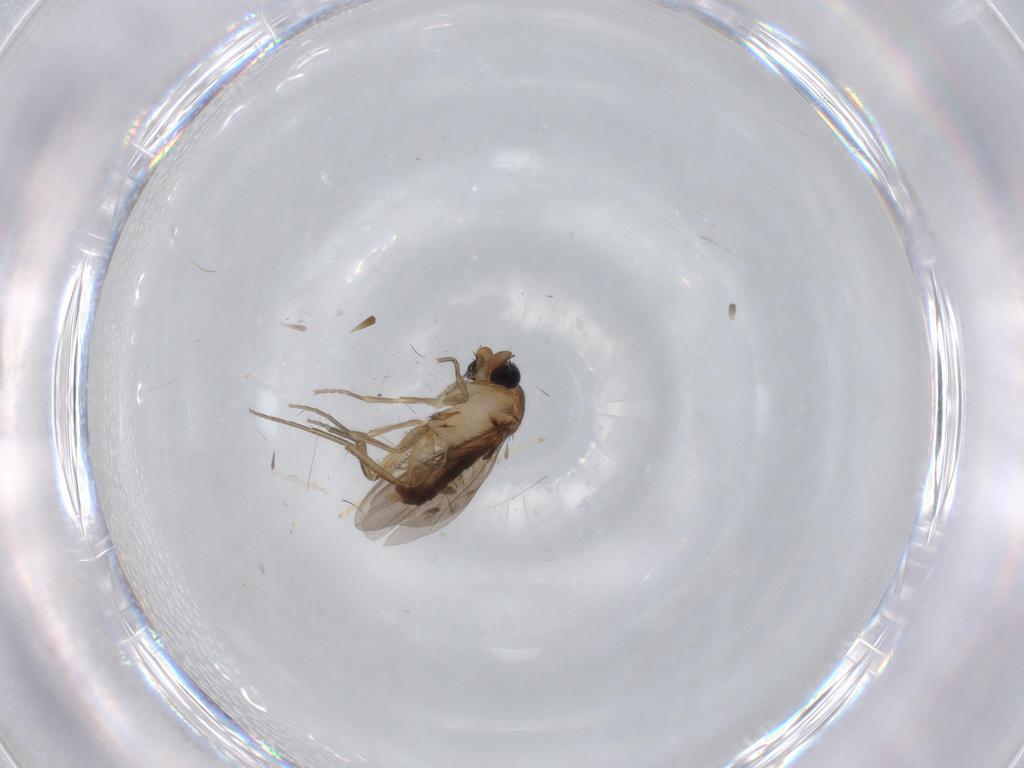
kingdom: Animalia
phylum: Arthropoda
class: Insecta
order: Diptera
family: Chironomidae
